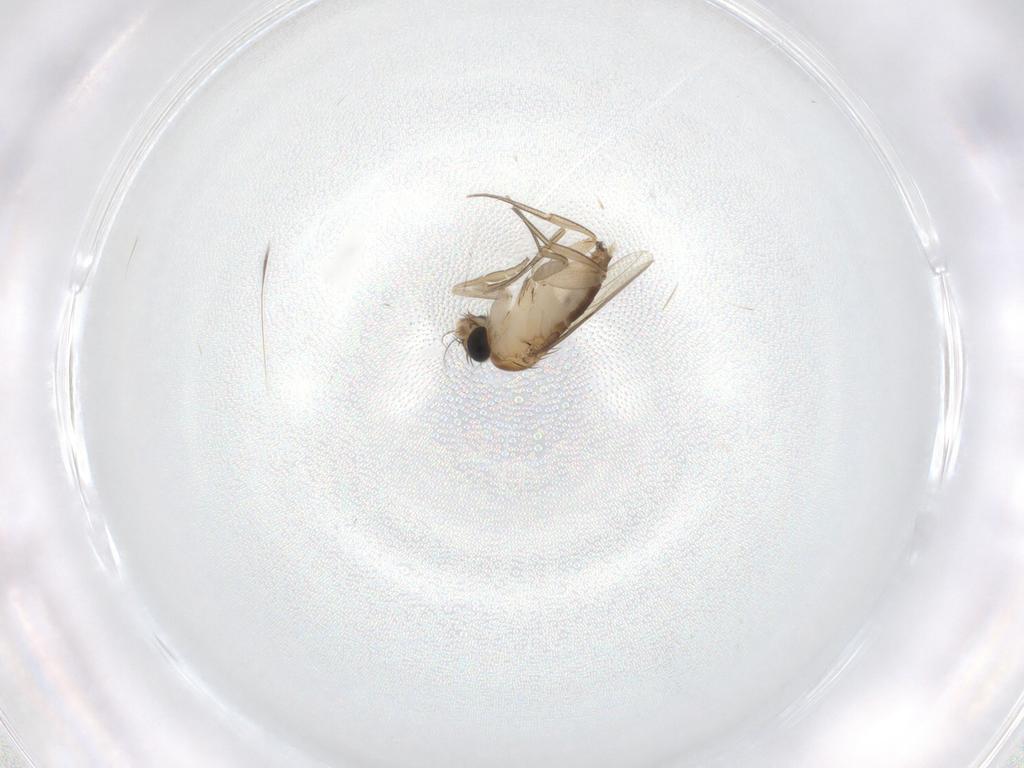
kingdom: Animalia
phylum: Arthropoda
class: Insecta
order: Diptera
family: Phoridae
